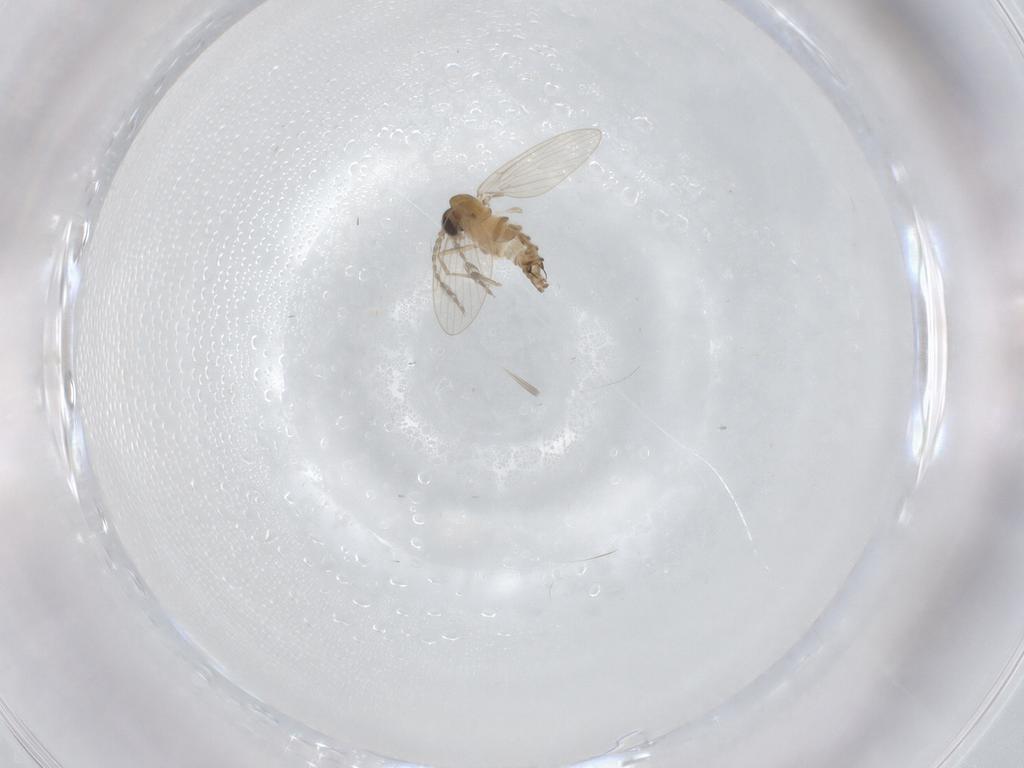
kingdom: Animalia
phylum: Arthropoda
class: Insecta
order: Diptera
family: Psychodidae
